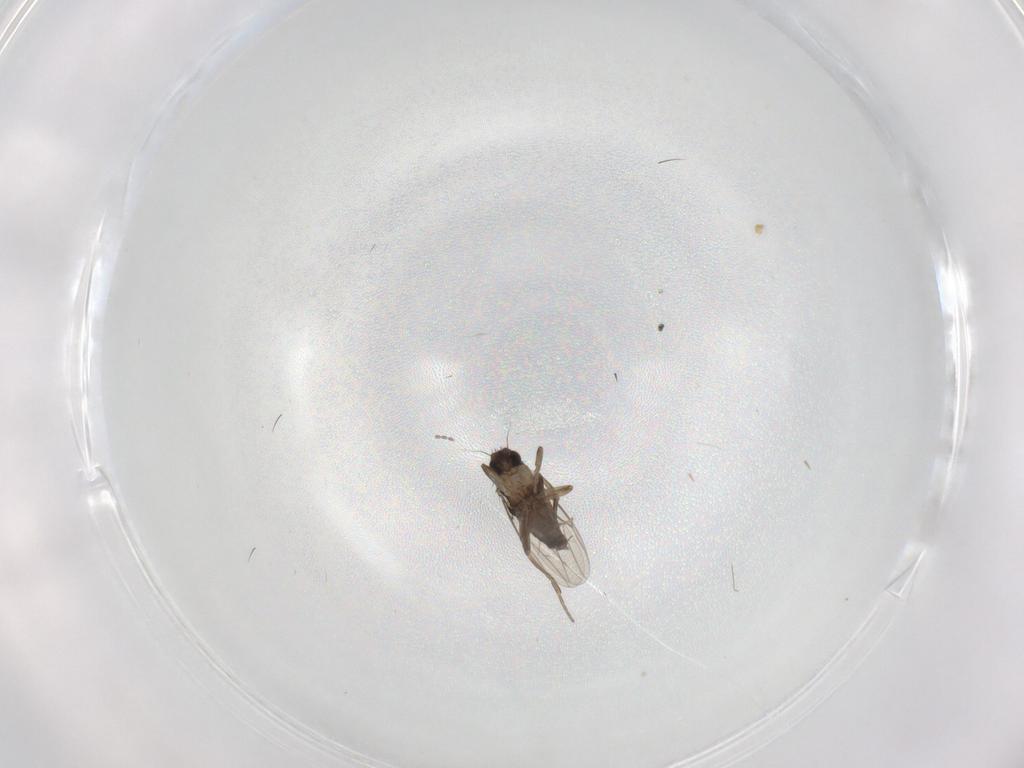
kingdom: Animalia
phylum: Arthropoda
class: Insecta
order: Diptera
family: Phoridae
